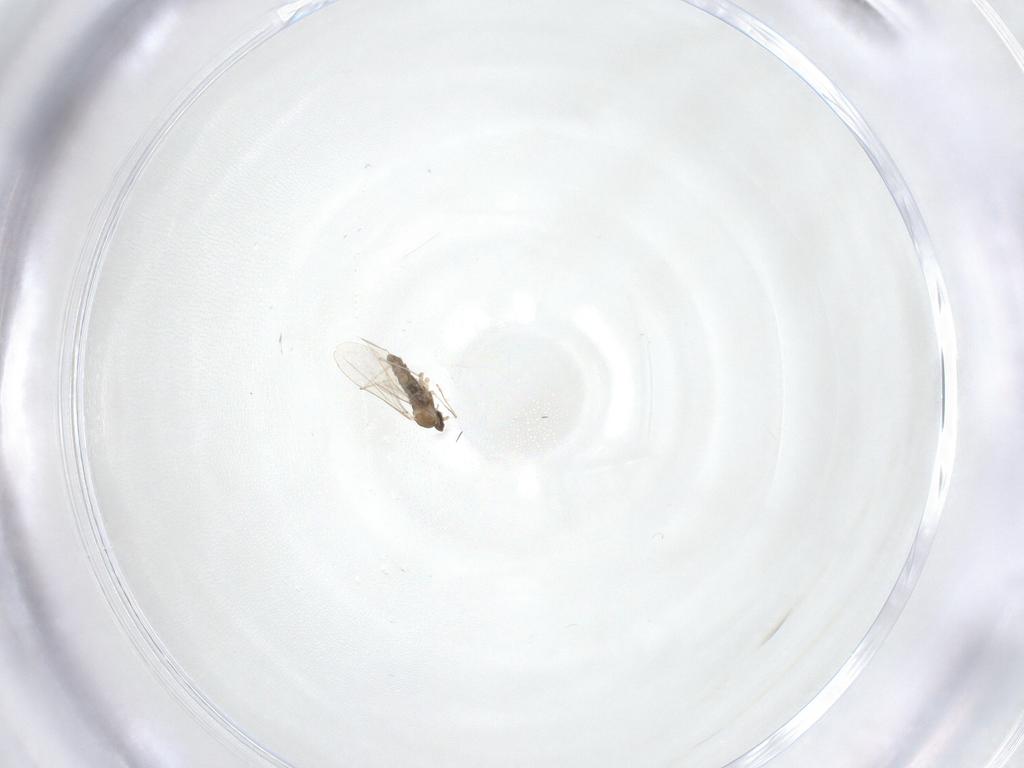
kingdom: Animalia
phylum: Arthropoda
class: Insecta
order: Diptera
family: Cecidomyiidae
